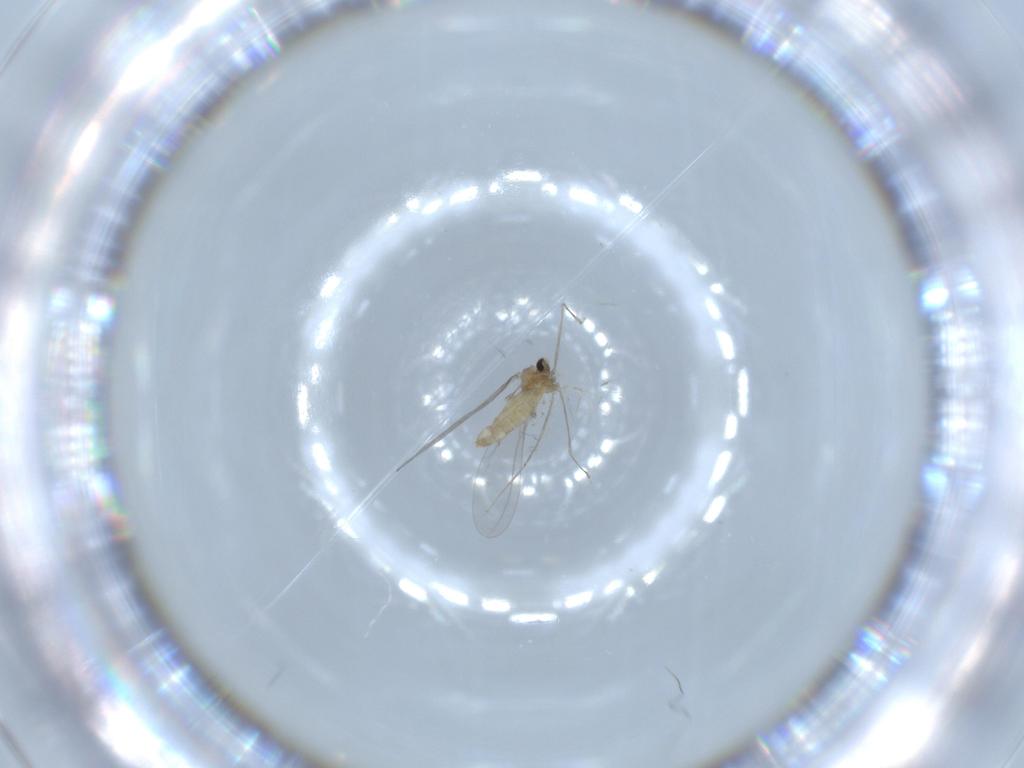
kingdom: Animalia
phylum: Arthropoda
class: Insecta
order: Diptera
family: Cecidomyiidae
